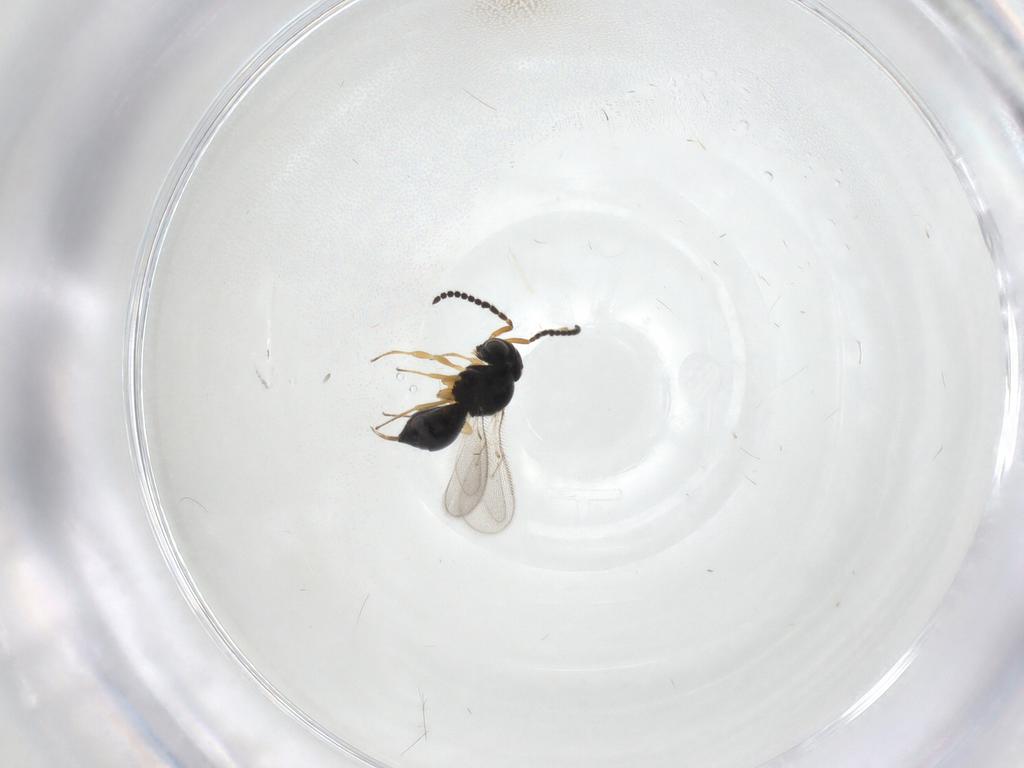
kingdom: Animalia
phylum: Arthropoda
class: Insecta
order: Hymenoptera
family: Scelionidae
